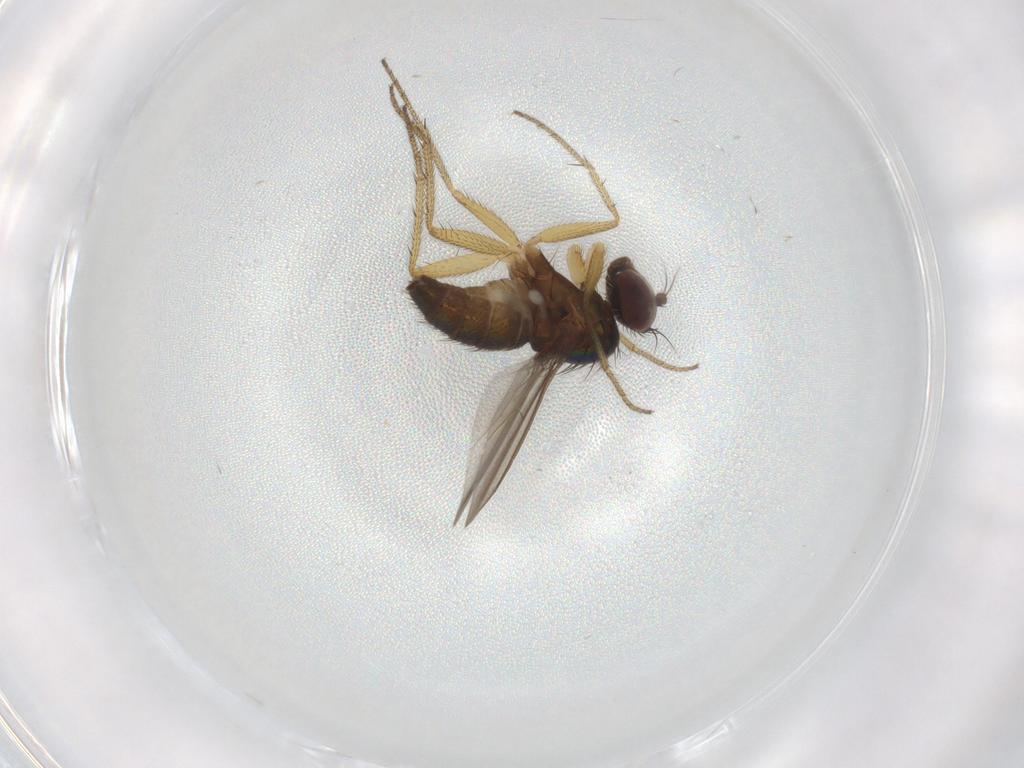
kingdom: Animalia
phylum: Arthropoda
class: Insecta
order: Diptera
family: Dolichopodidae
